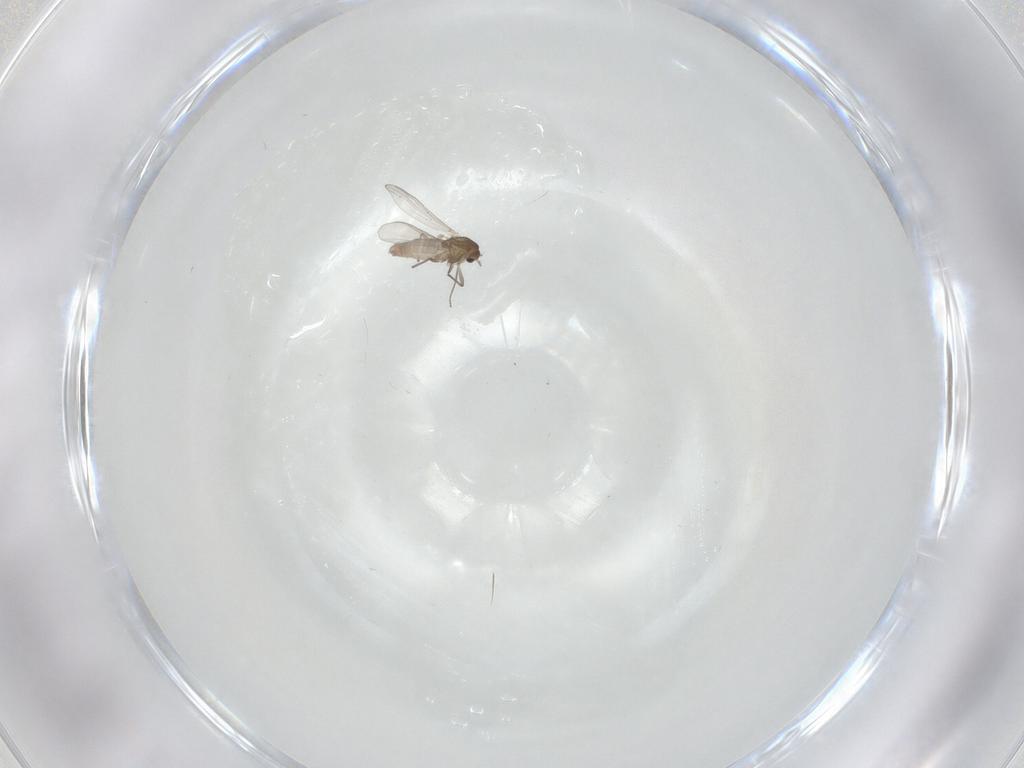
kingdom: Animalia
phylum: Arthropoda
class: Insecta
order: Diptera
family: Chironomidae
